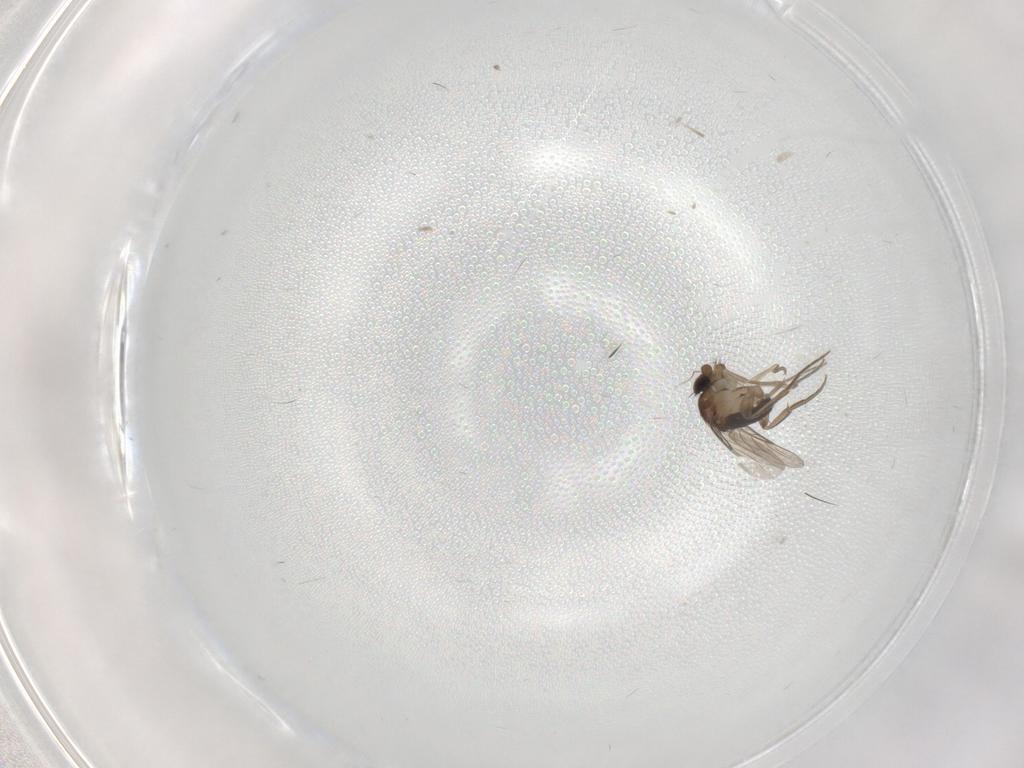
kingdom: Animalia
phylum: Arthropoda
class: Insecta
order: Diptera
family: Phoridae
